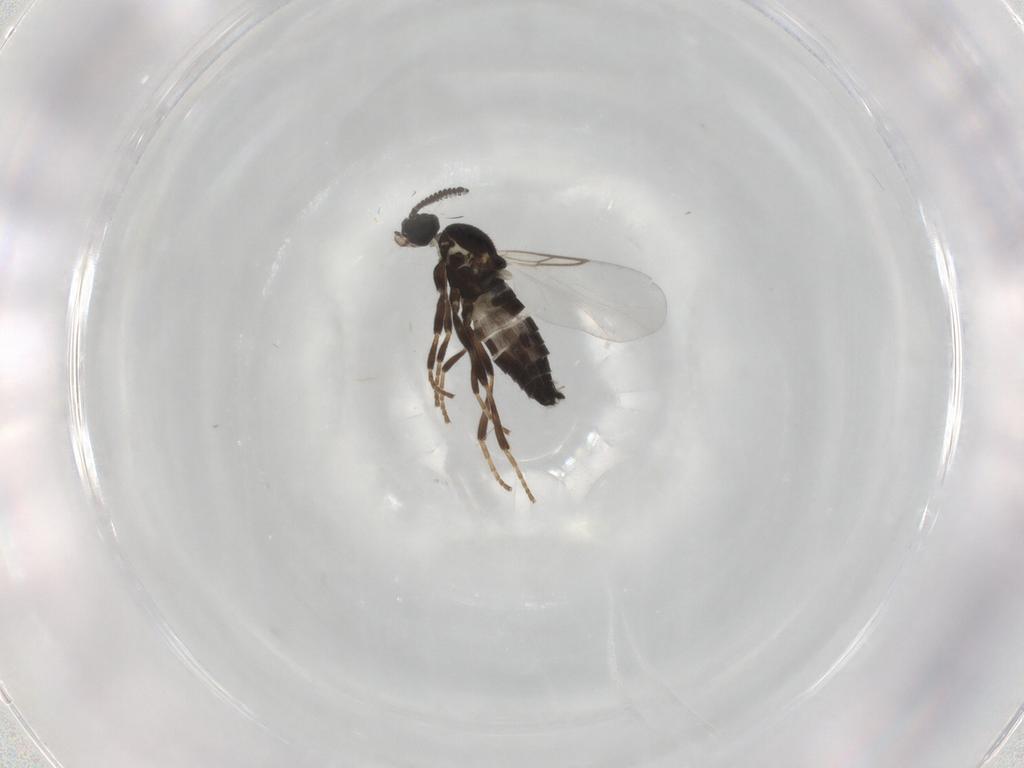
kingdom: Animalia
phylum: Arthropoda
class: Insecta
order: Diptera
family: Scatopsidae
